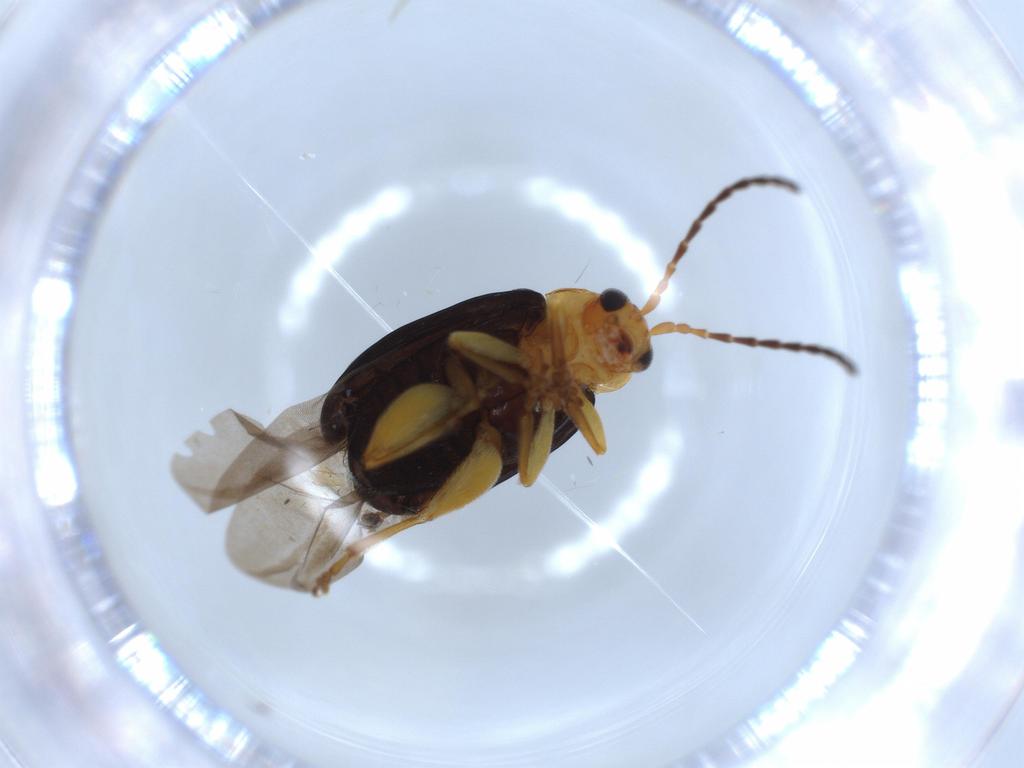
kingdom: Animalia
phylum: Arthropoda
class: Insecta
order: Coleoptera
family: Chrysomelidae
